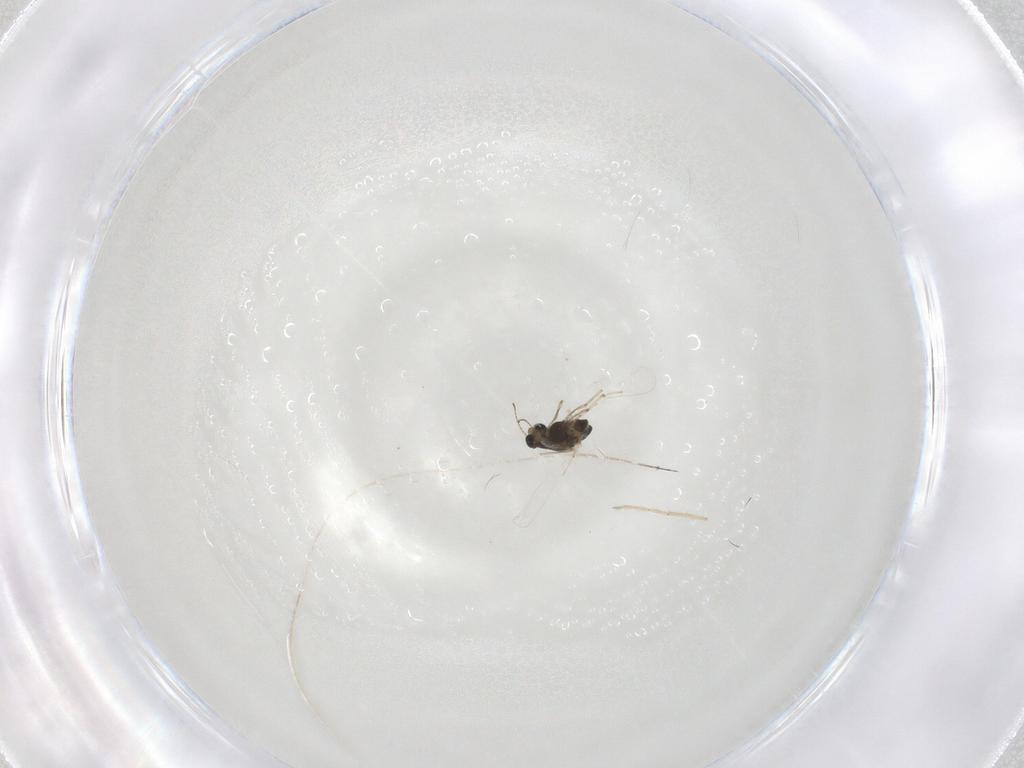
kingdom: Animalia
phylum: Arthropoda
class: Insecta
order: Diptera
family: Chironomidae
